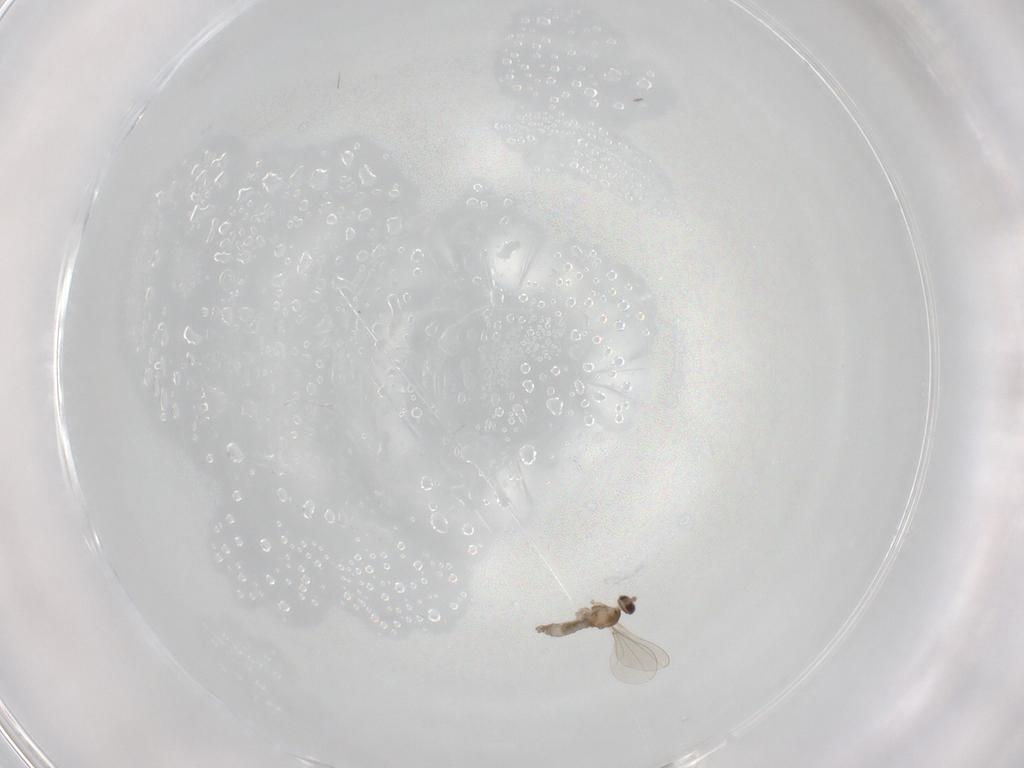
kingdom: Animalia
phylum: Arthropoda
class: Insecta
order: Diptera
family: Cecidomyiidae
